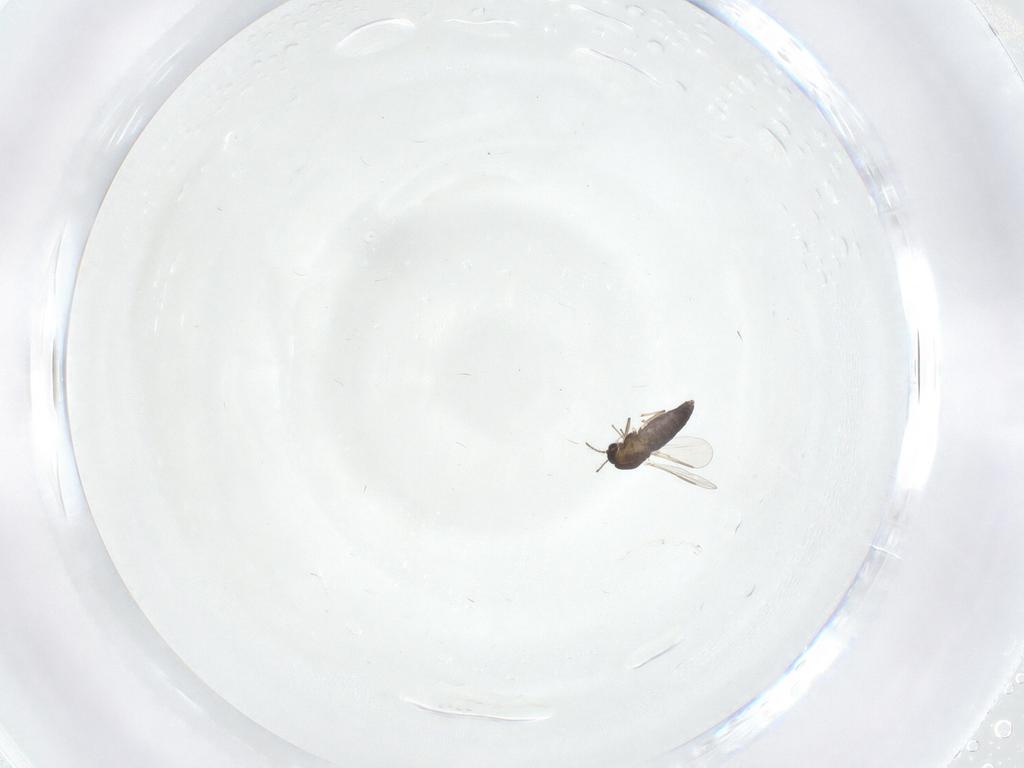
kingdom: Animalia
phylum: Arthropoda
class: Insecta
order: Diptera
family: Chironomidae
